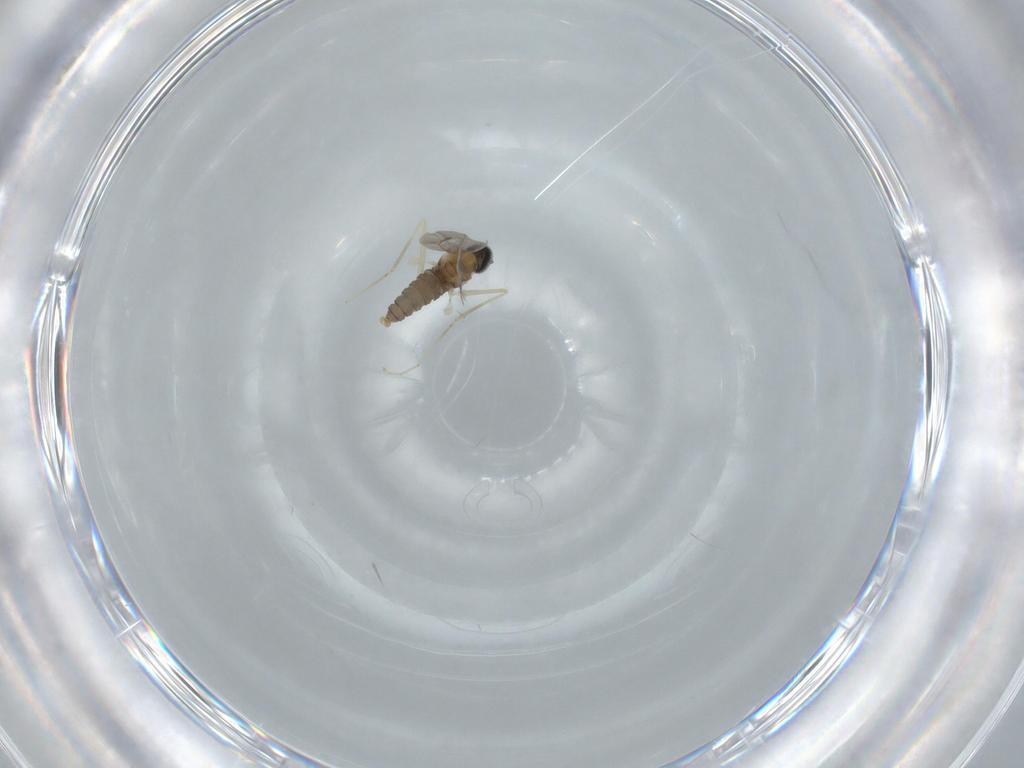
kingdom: Animalia
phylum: Arthropoda
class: Insecta
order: Diptera
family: Cecidomyiidae
